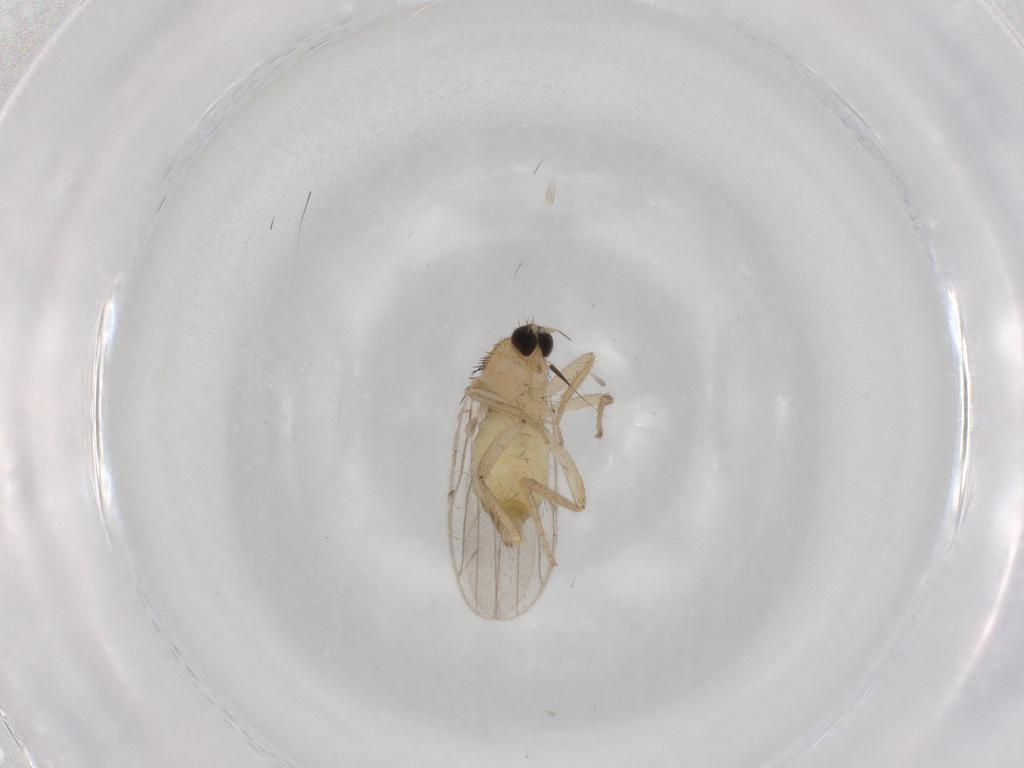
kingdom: Animalia
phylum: Arthropoda
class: Insecta
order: Diptera
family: Hybotidae
